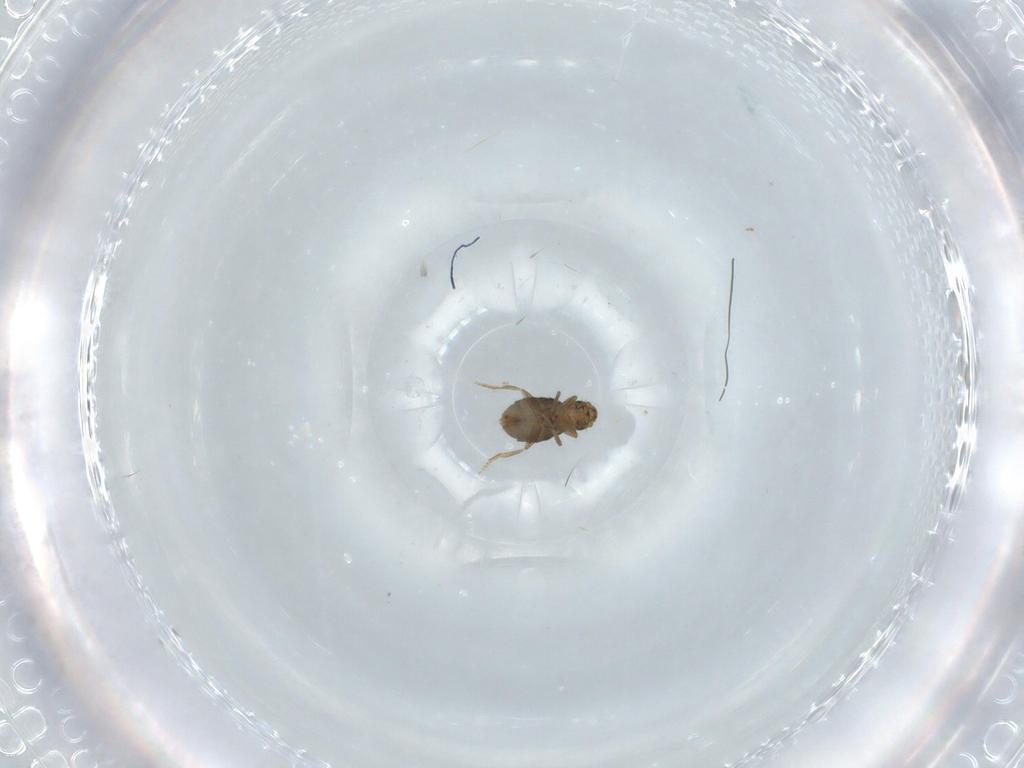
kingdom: Animalia
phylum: Arthropoda
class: Insecta
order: Diptera
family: Phoridae
